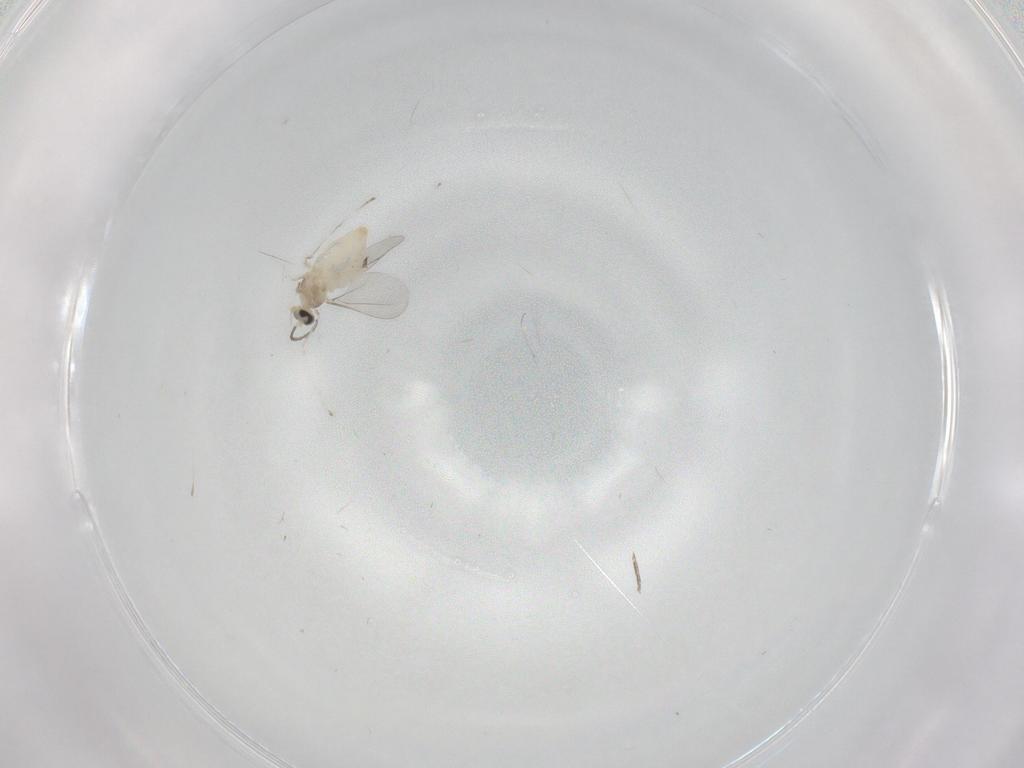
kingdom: Animalia
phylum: Arthropoda
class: Insecta
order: Diptera
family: Cecidomyiidae
